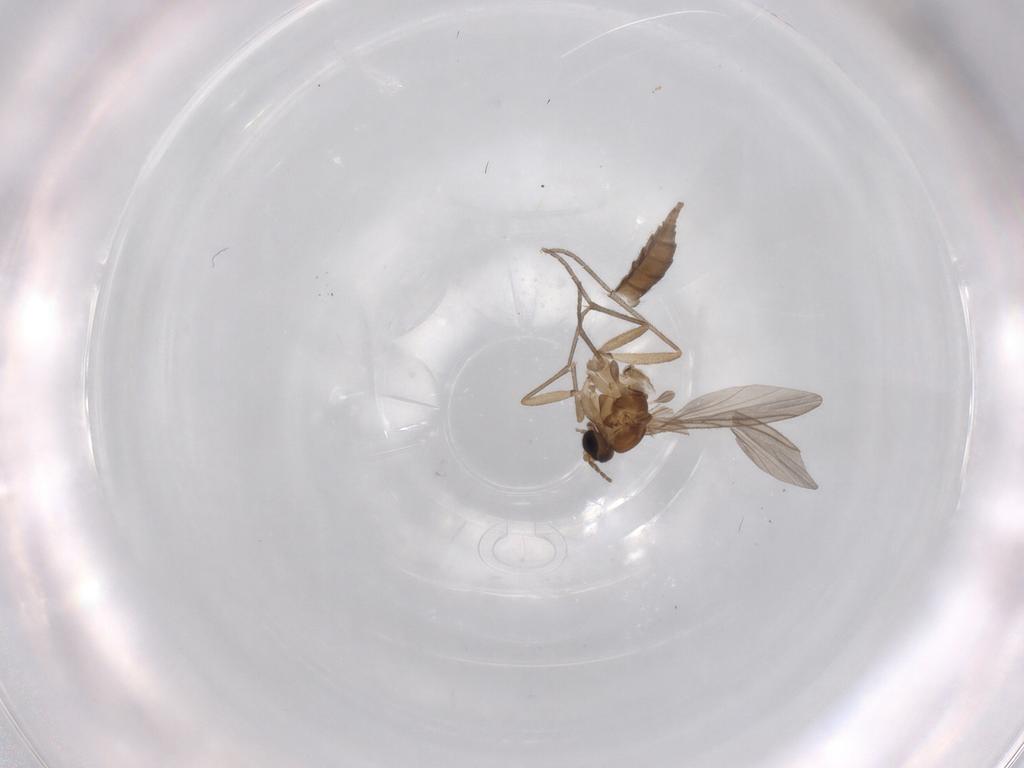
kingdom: Animalia
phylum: Arthropoda
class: Insecta
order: Diptera
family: Sciaridae
